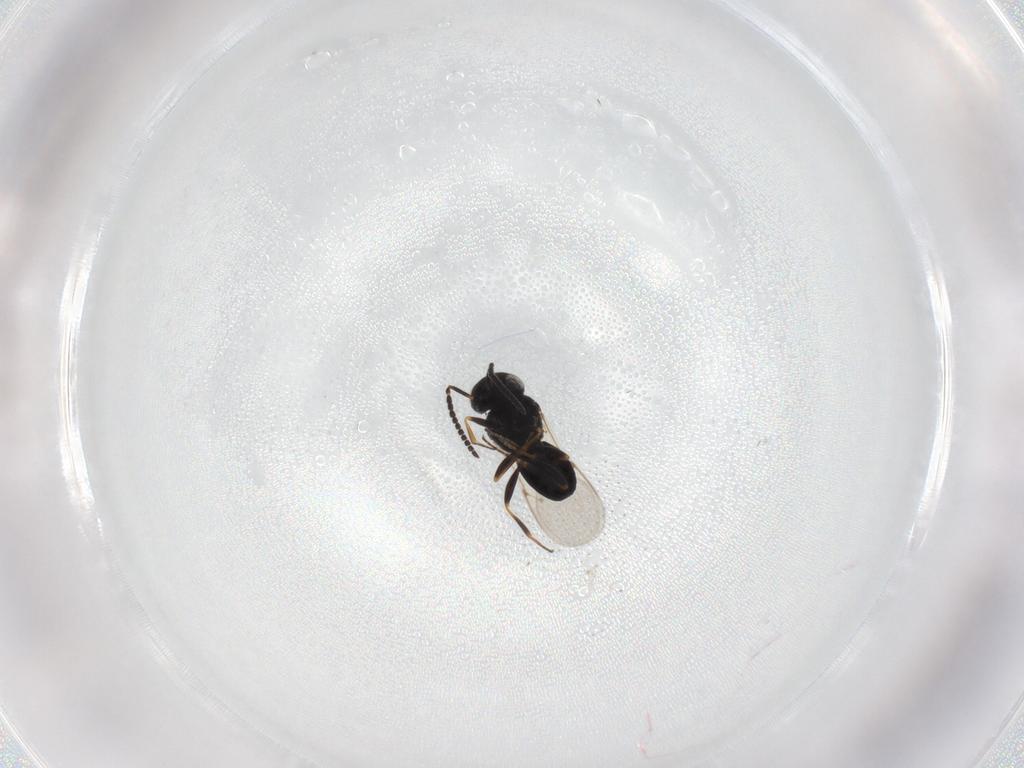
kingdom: Animalia
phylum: Arthropoda
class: Insecta
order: Hymenoptera
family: Scelionidae
